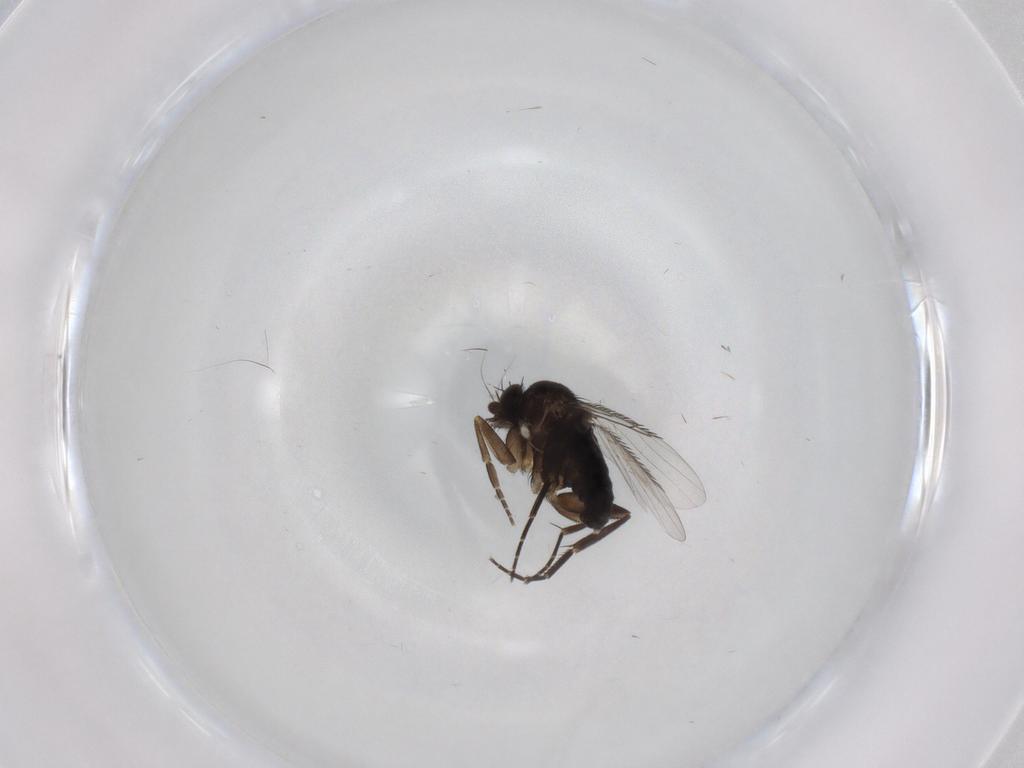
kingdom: Animalia
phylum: Arthropoda
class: Insecta
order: Diptera
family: Phoridae
